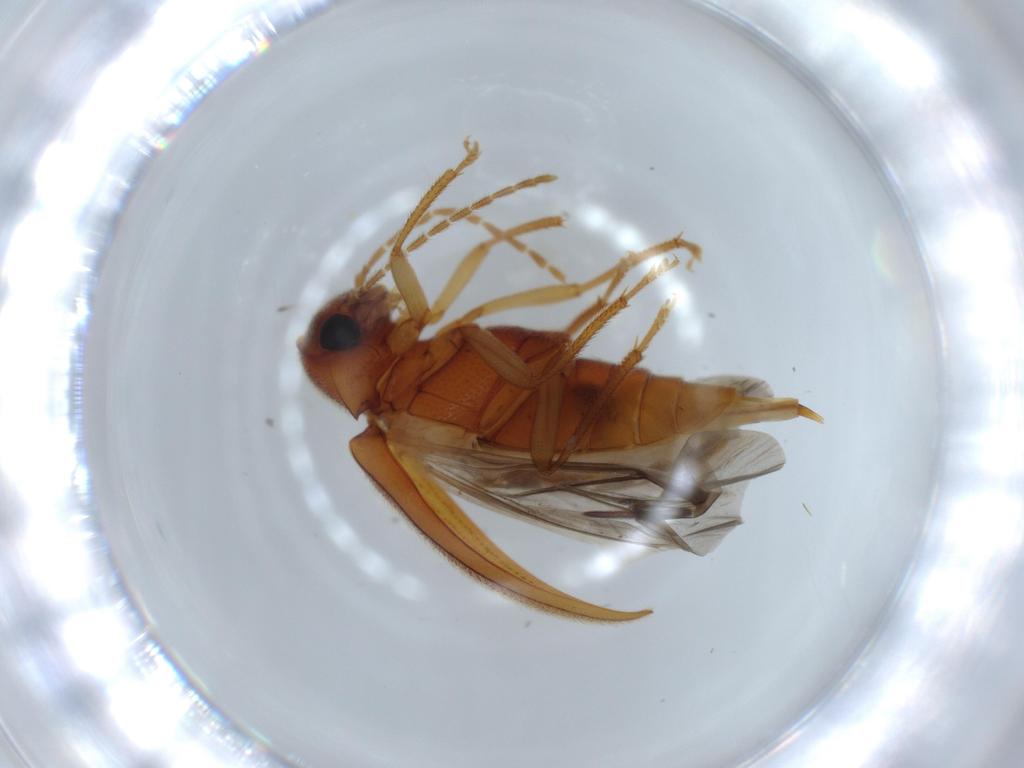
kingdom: Animalia
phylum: Arthropoda
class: Insecta
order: Coleoptera
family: Ptilodactylidae
